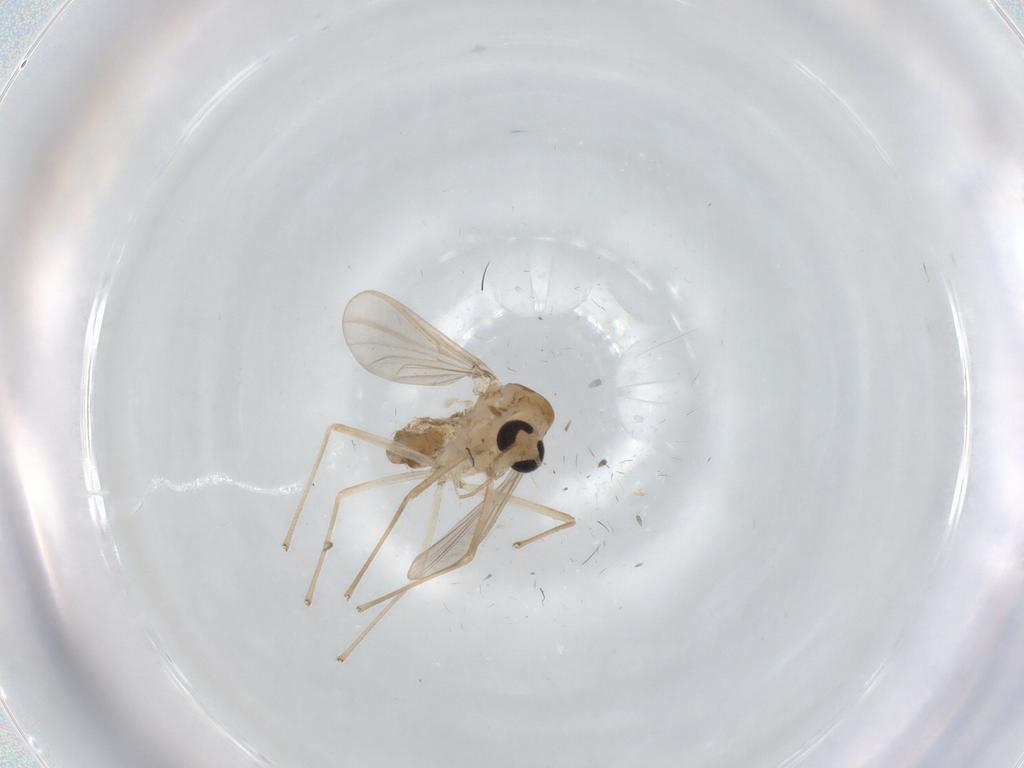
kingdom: Animalia
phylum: Arthropoda
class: Insecta
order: Diptera
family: Chironomidae
